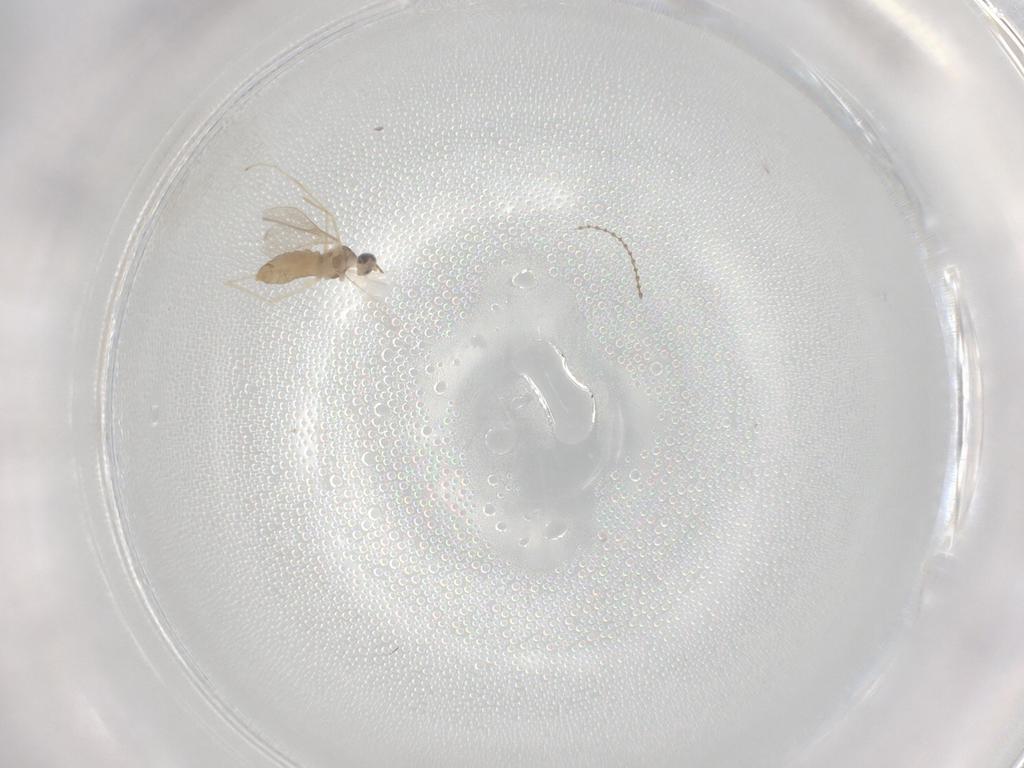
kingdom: Animalia
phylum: Arthropoda
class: Insecta
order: Diptera
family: Cecidomyiidae
